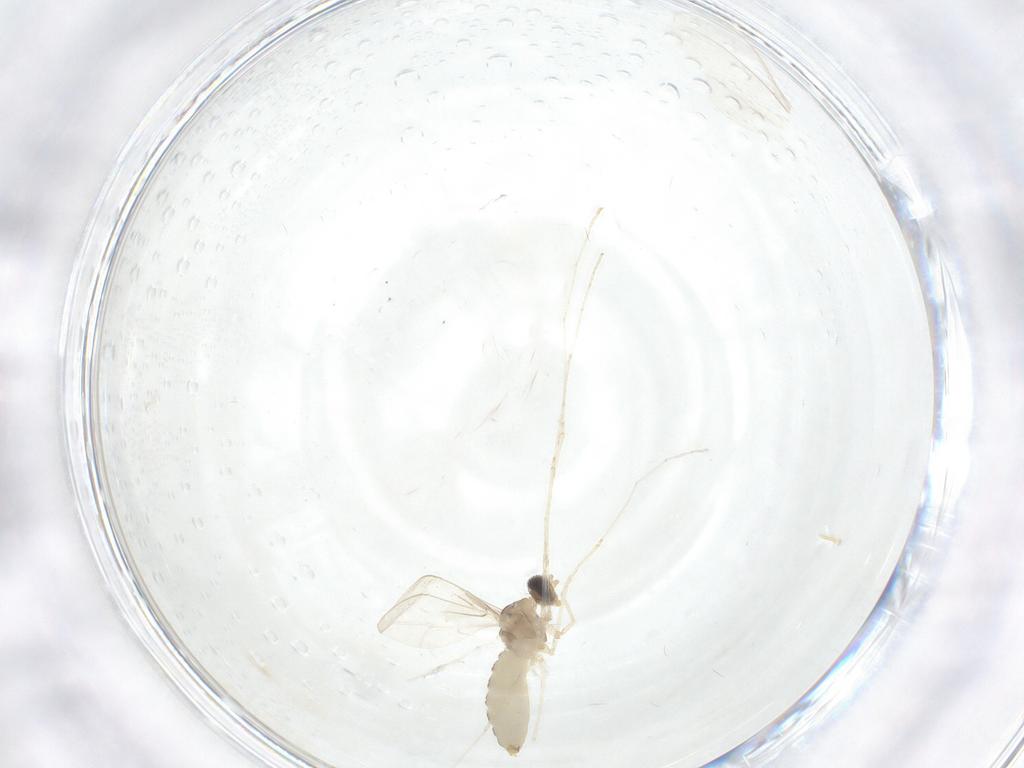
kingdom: Animalia
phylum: Arthropoda
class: Insecta
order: Diptera
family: Cecidomyiidae
